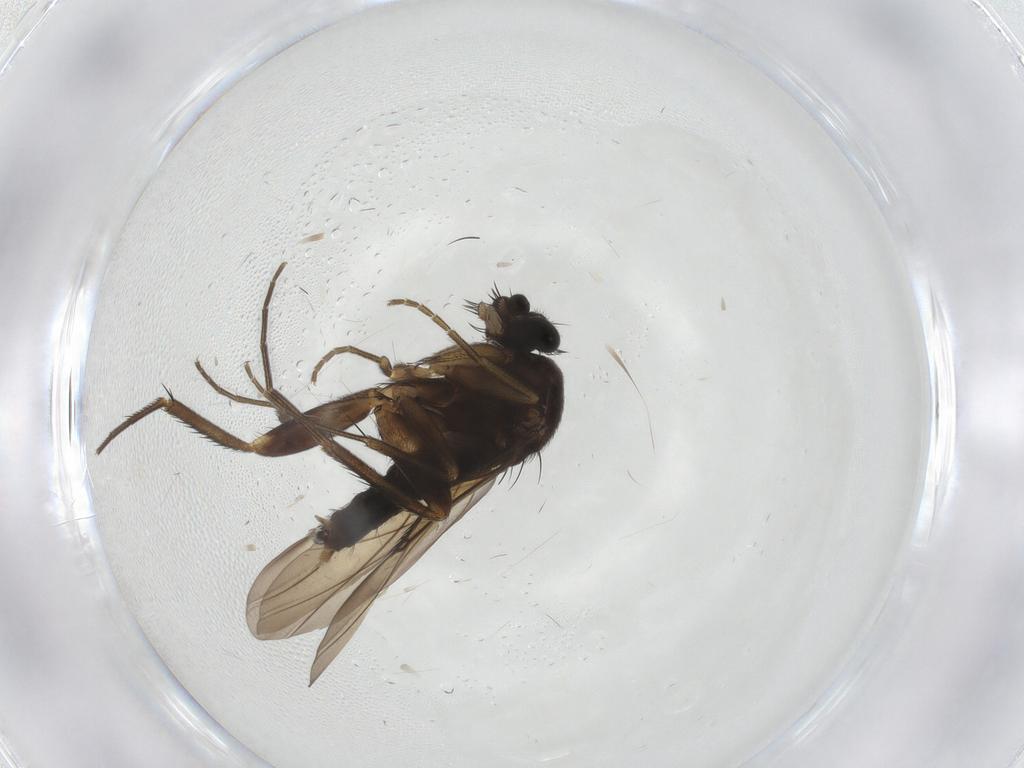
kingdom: Animalia
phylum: Arthropoda
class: Insecta
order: Diptera
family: Phoridae
